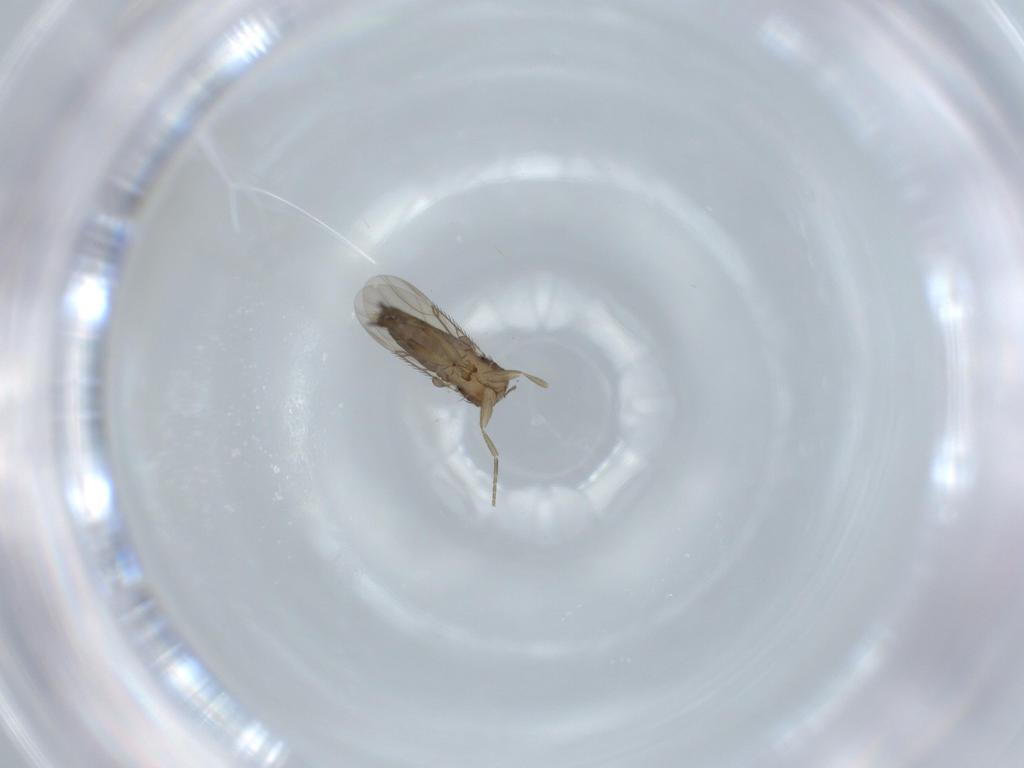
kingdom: Animalia
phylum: Arthropoda
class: Insecta
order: Diptera
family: Phoridae
